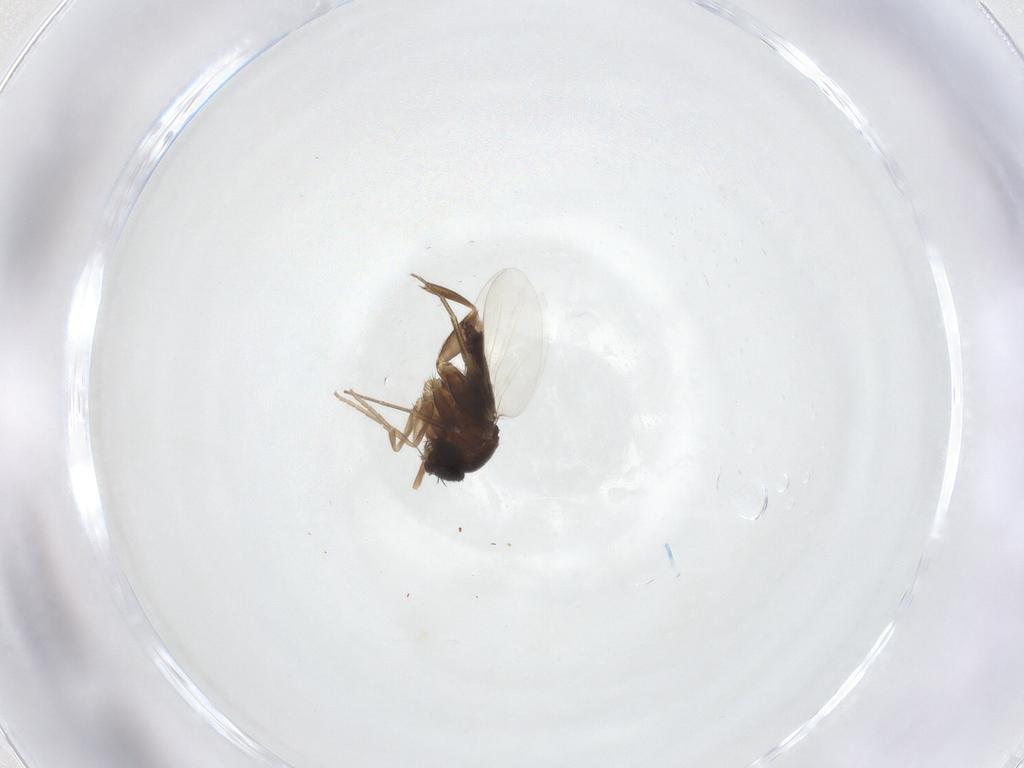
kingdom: Animalia
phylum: Arthropoda
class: Insecta
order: Diptera
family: Phoridae
